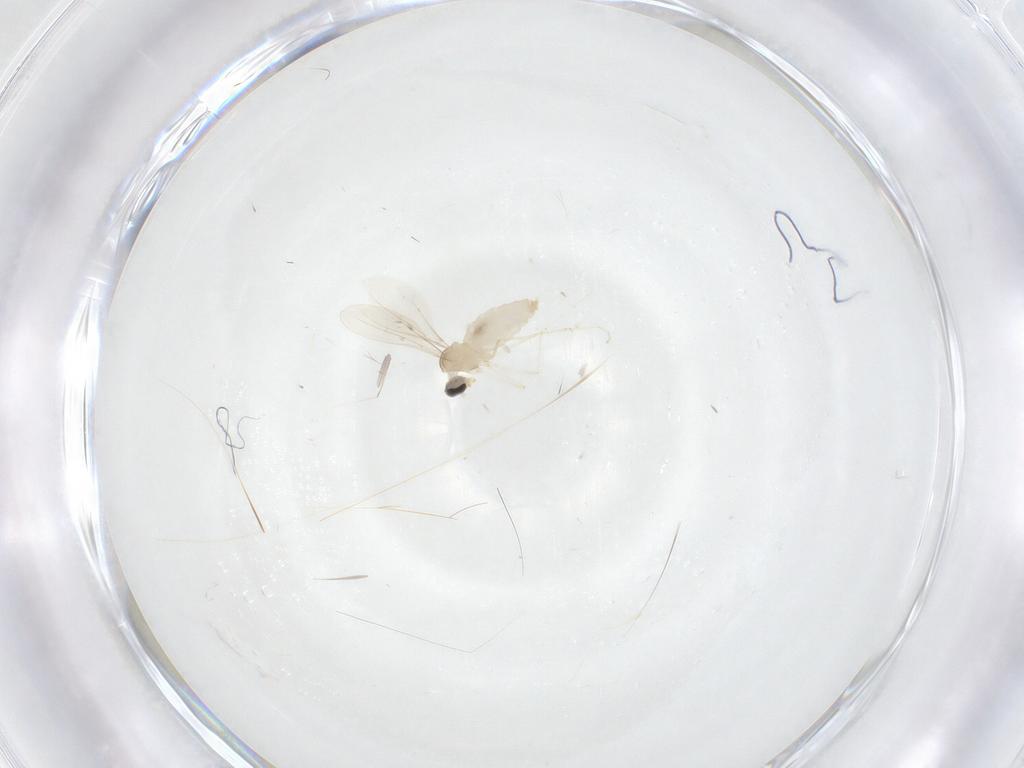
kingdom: Animalia
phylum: Arthropoda
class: Insecta
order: Diptera
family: Cecidomyiidae
